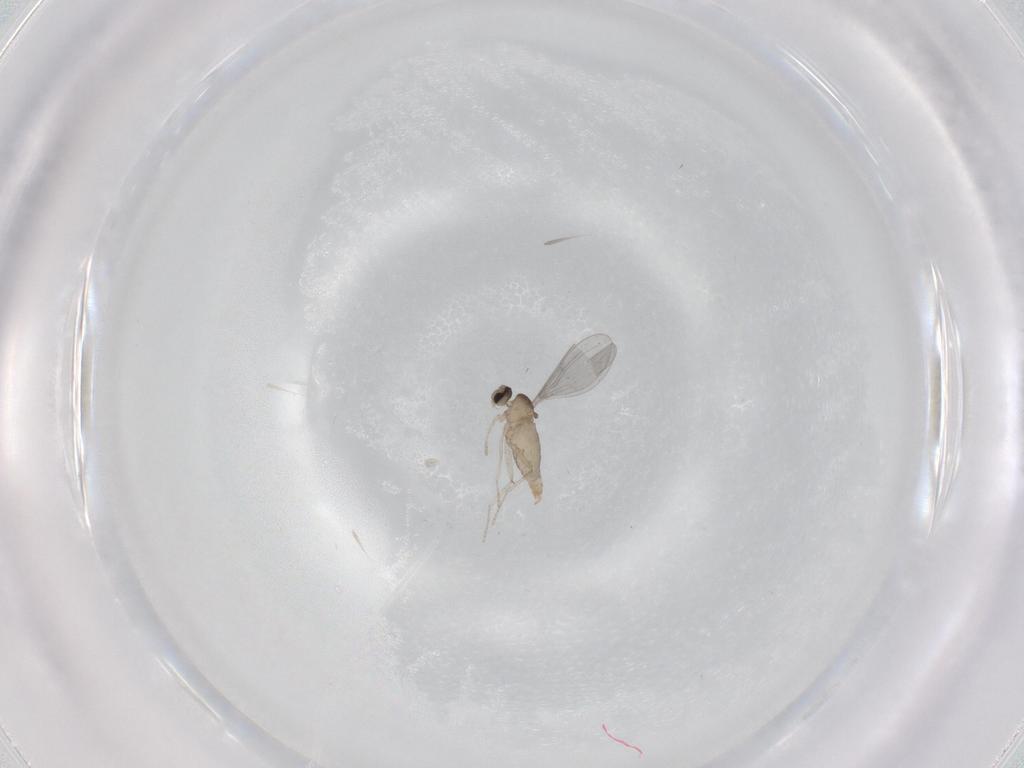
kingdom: Animalia
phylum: Arthropoda
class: Insecta
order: Diptera
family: Cecidomyiidae
